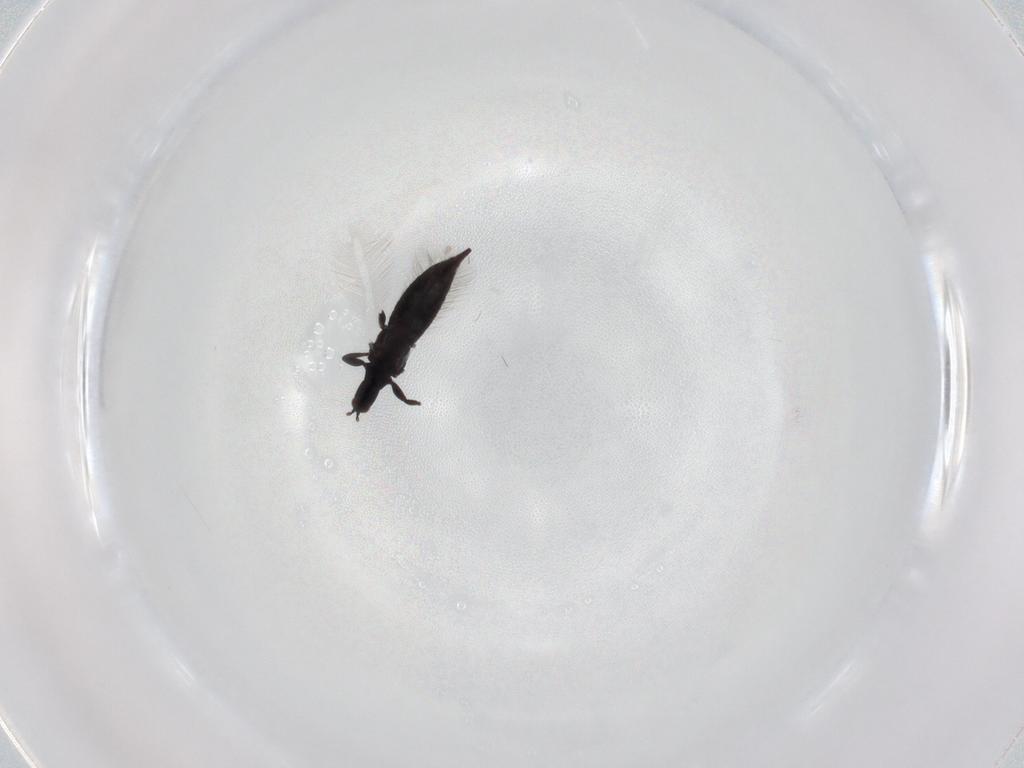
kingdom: Animalia
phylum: Arthropoda
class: Insecta
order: Thysanoptera
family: Phlaeothripidae
